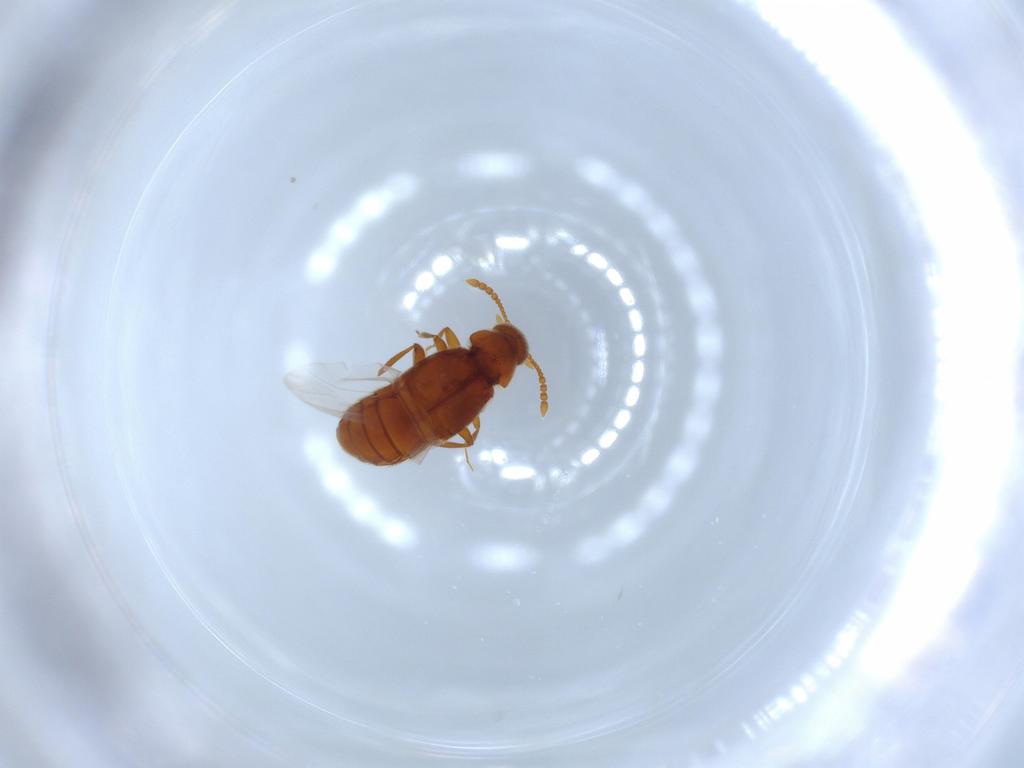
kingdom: Animalia
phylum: Arthropoda
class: Insecta
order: Coleoptera
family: Staphylinidae
